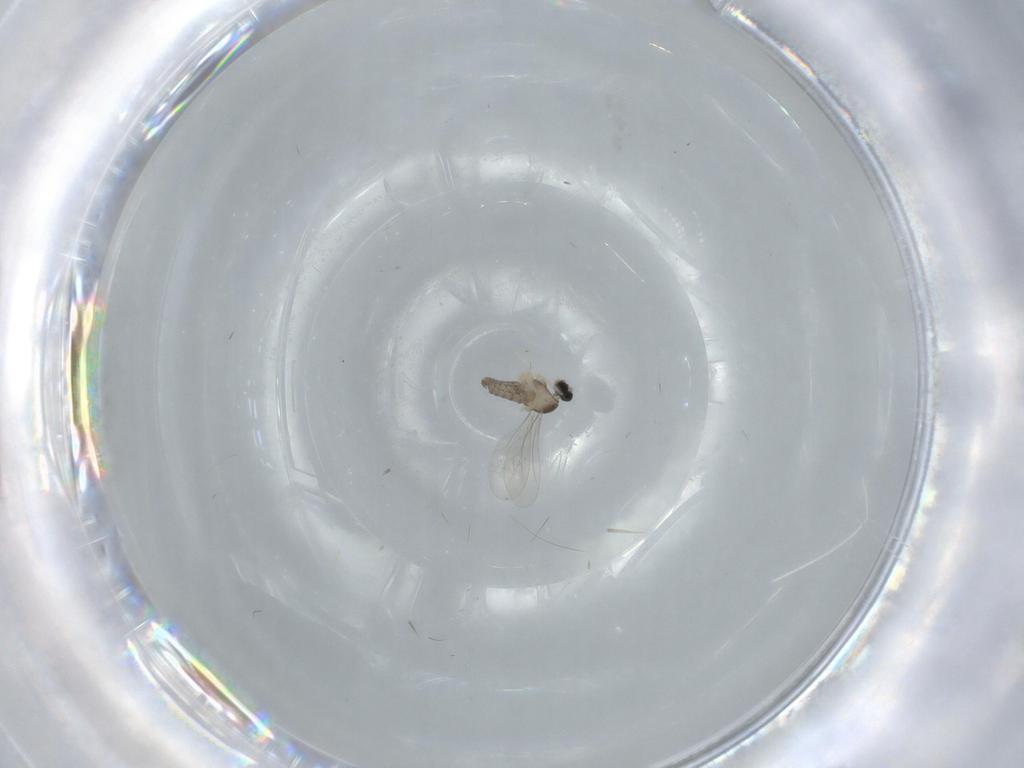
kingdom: Animalia
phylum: Arthropoda
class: Insecta
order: Diptera
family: Cecidomyiidae
